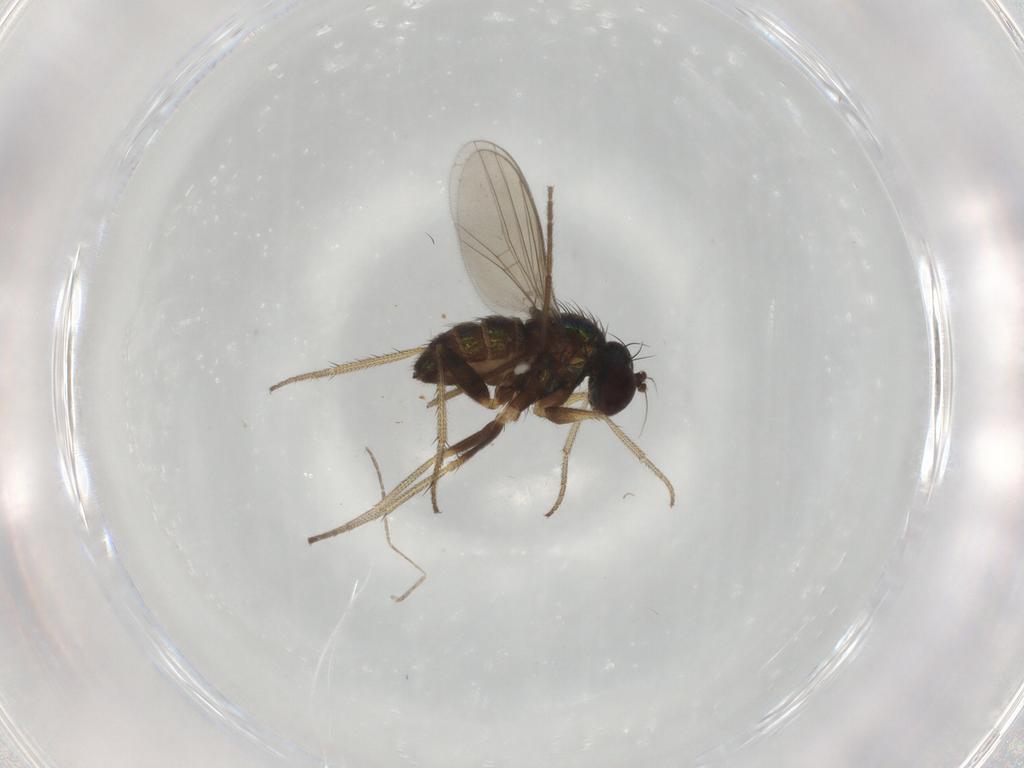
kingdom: Animalia
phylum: Arthropoda
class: Insecta
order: Diptera
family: Chironomidae
